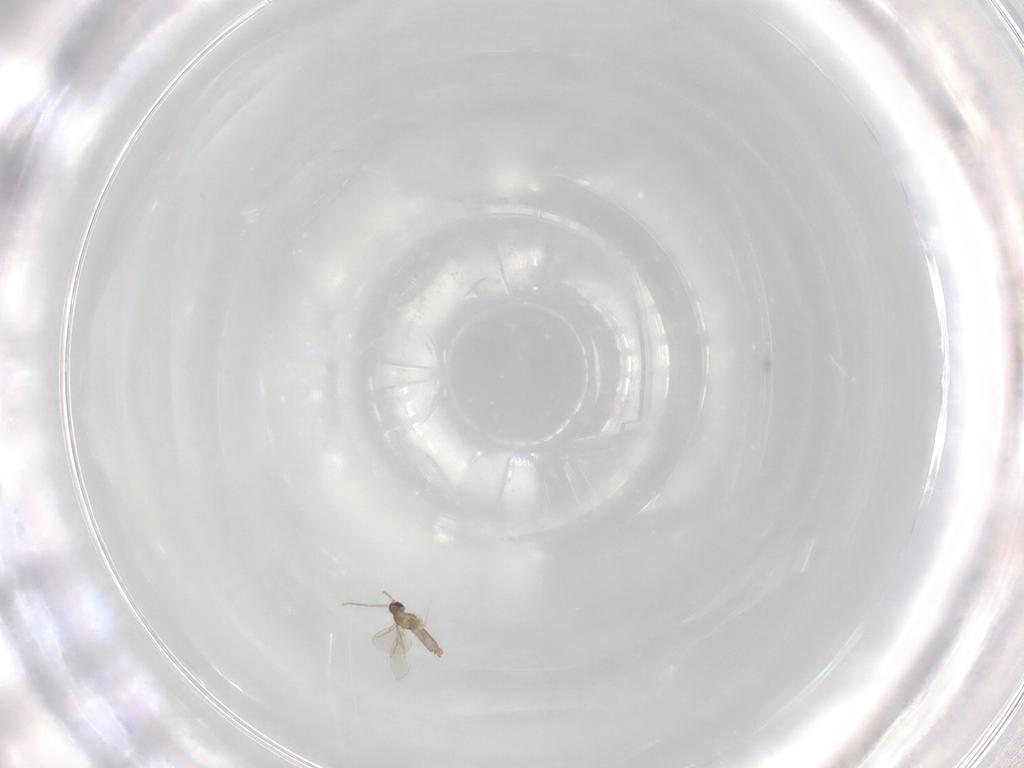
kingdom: Animalia
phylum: Arthropoda
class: Insecta
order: Diptera
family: Cecidomyiidae
